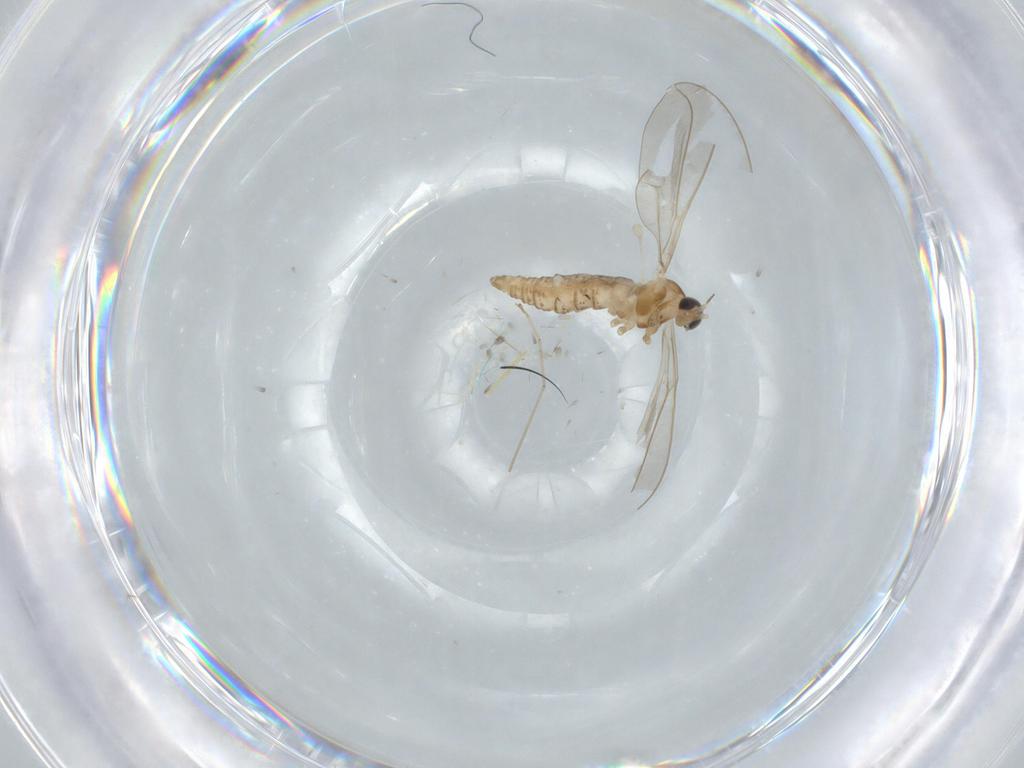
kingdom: Animalia
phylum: Arthropoda
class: Insecta
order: Diptera
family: Cecidomyiidae
